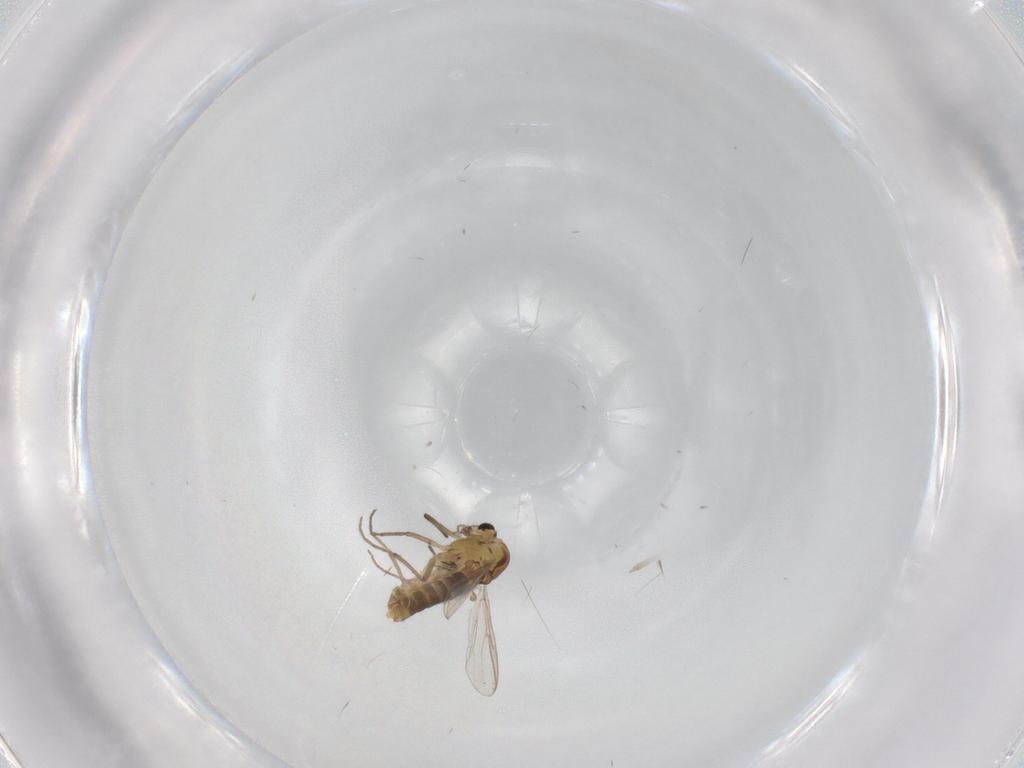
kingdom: Animalia
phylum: Arthropoda
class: Insecta
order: Diptera
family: Chironomidae
